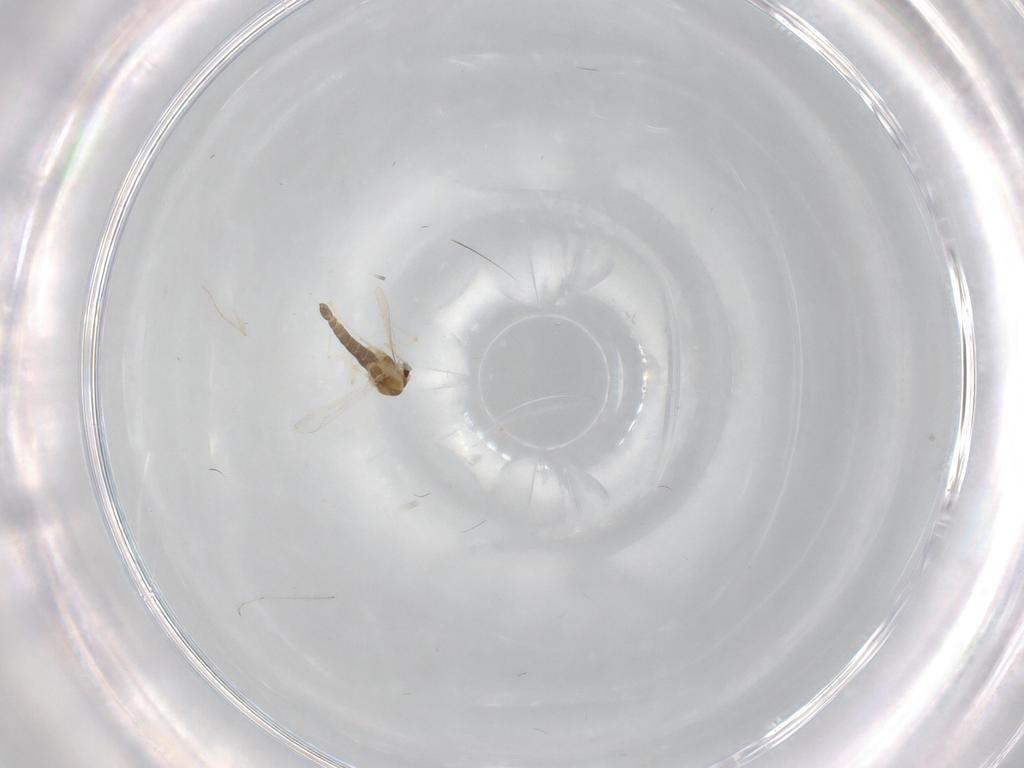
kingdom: Animalia
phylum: Arthropoda
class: Insecta
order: Diptera
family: Chironomidae
